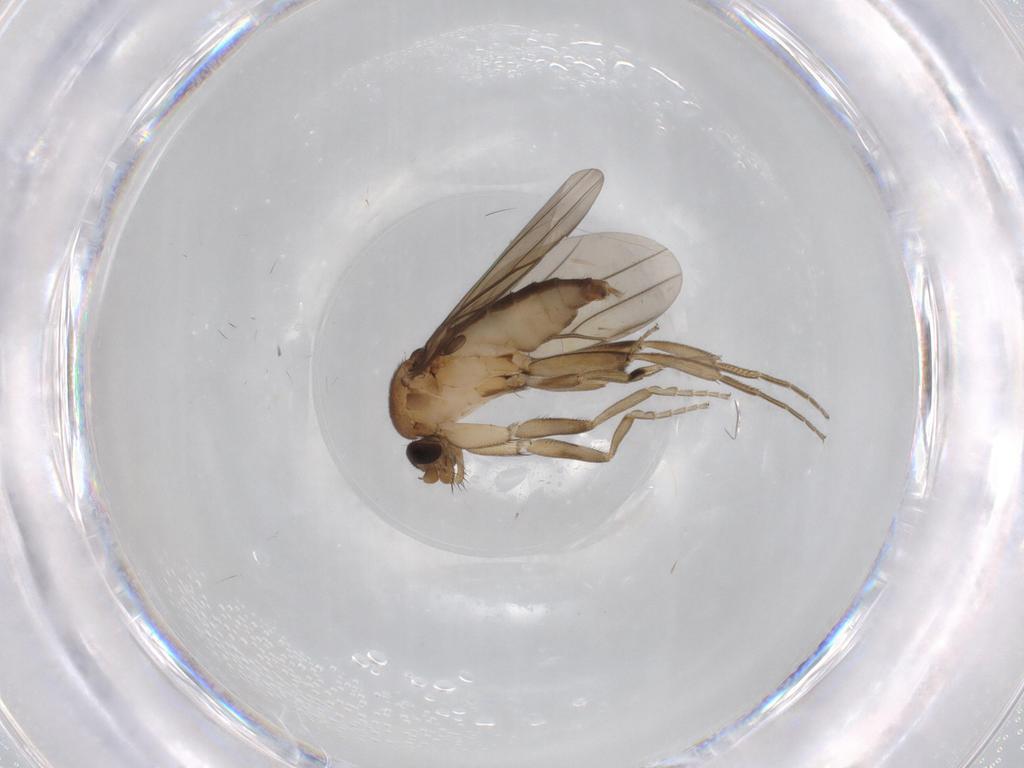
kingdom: Animalia
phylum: Arthropoda
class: Insecta
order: Diptera
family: Phoridae
